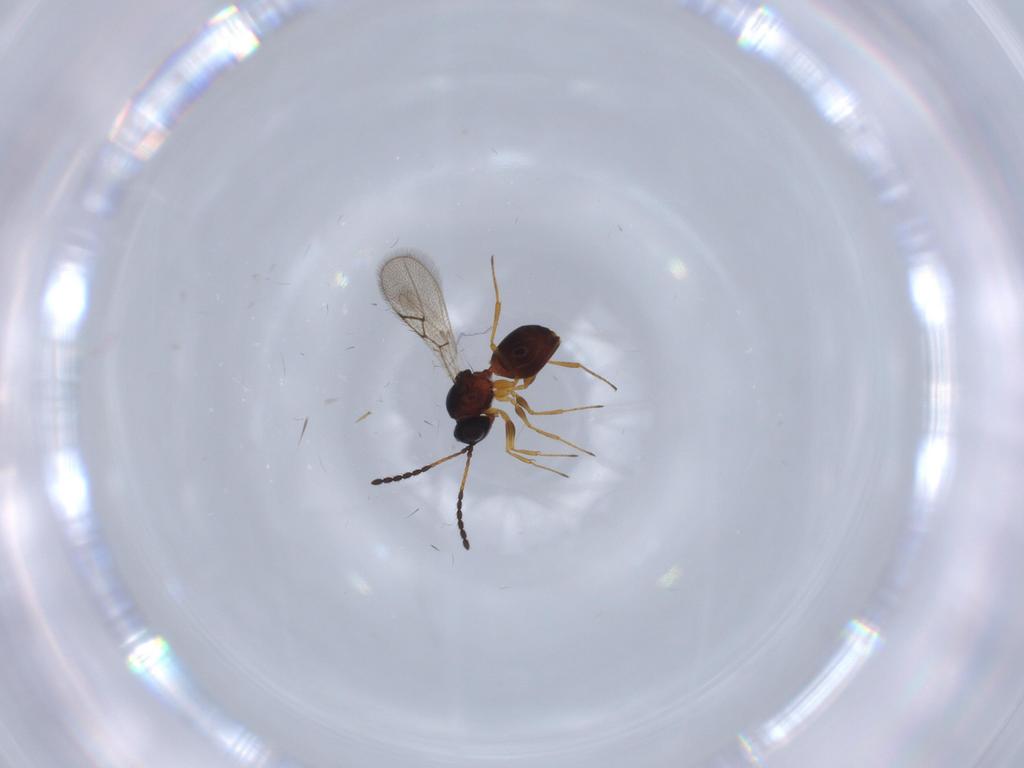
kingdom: Animalia
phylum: Arthropoda
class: Insecta
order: Hymenoptera
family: Figitidae
